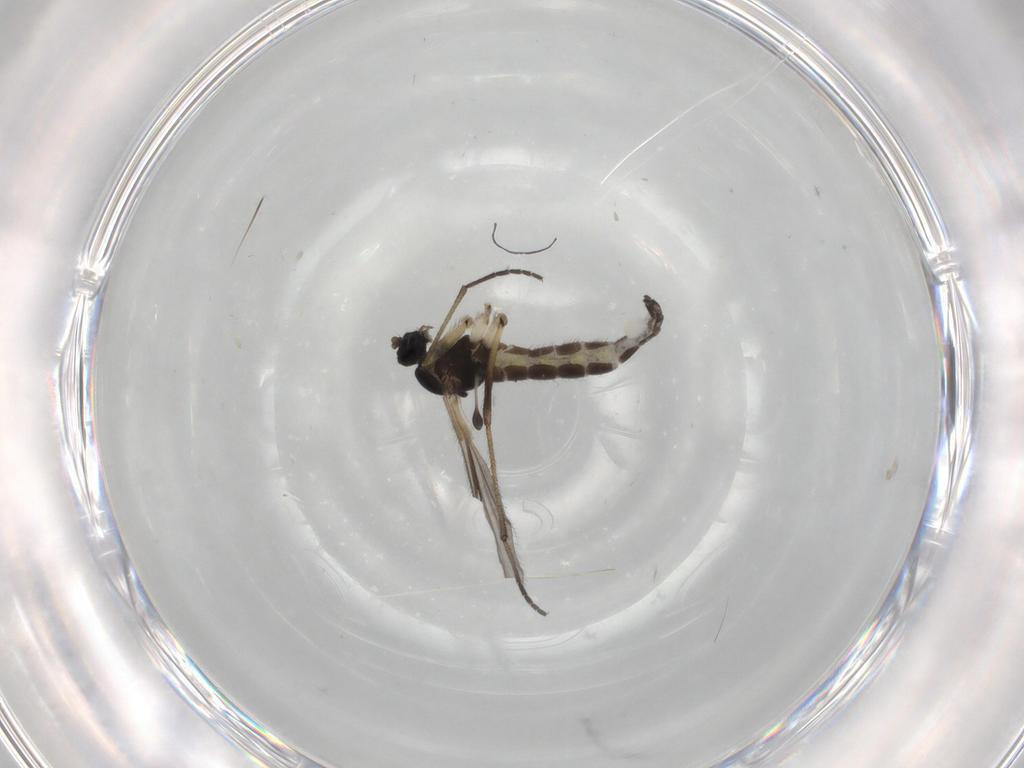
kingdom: Animalia
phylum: Arthropoda
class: Insecta
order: Diptera
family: Sciaridae
